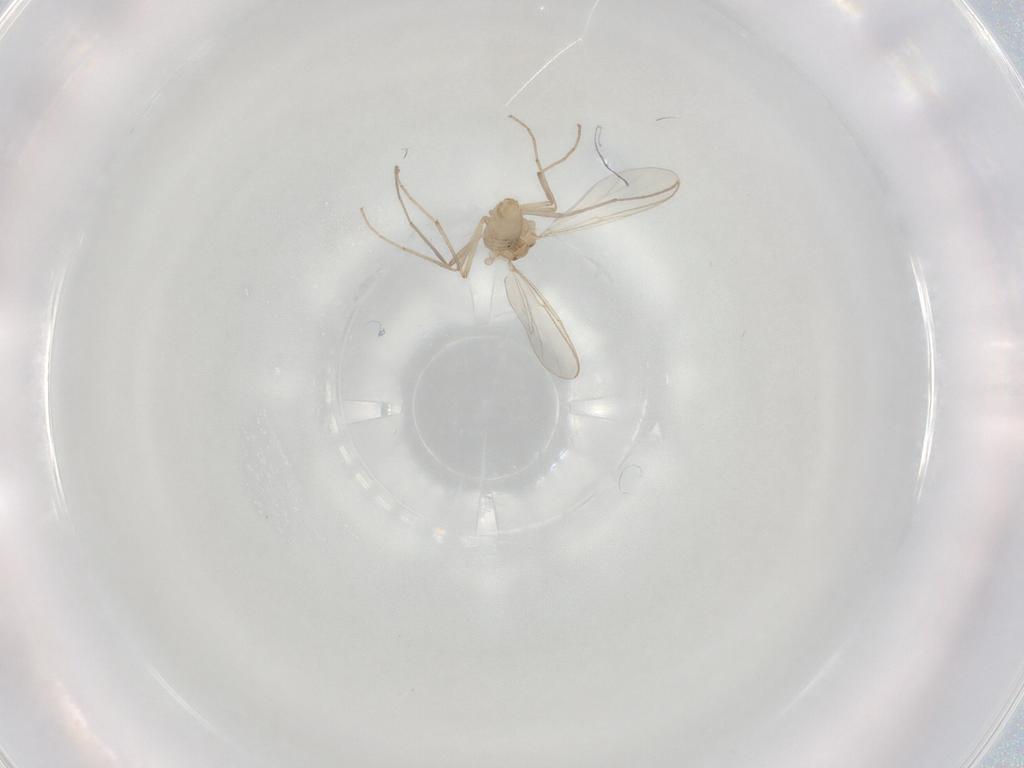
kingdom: Animalia
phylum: Arthropoda
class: Insecta
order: Diptera
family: Chironomidae
